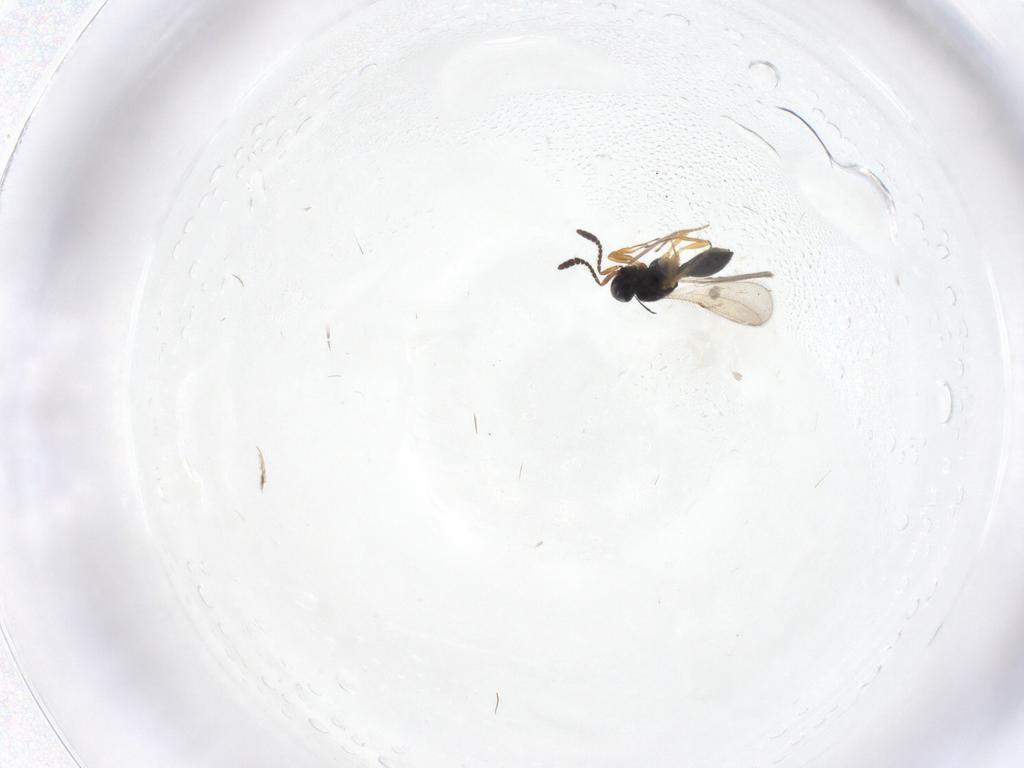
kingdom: Animalia
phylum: Arthropoda
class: Insecta
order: Hymenoptera
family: Scelionidae
